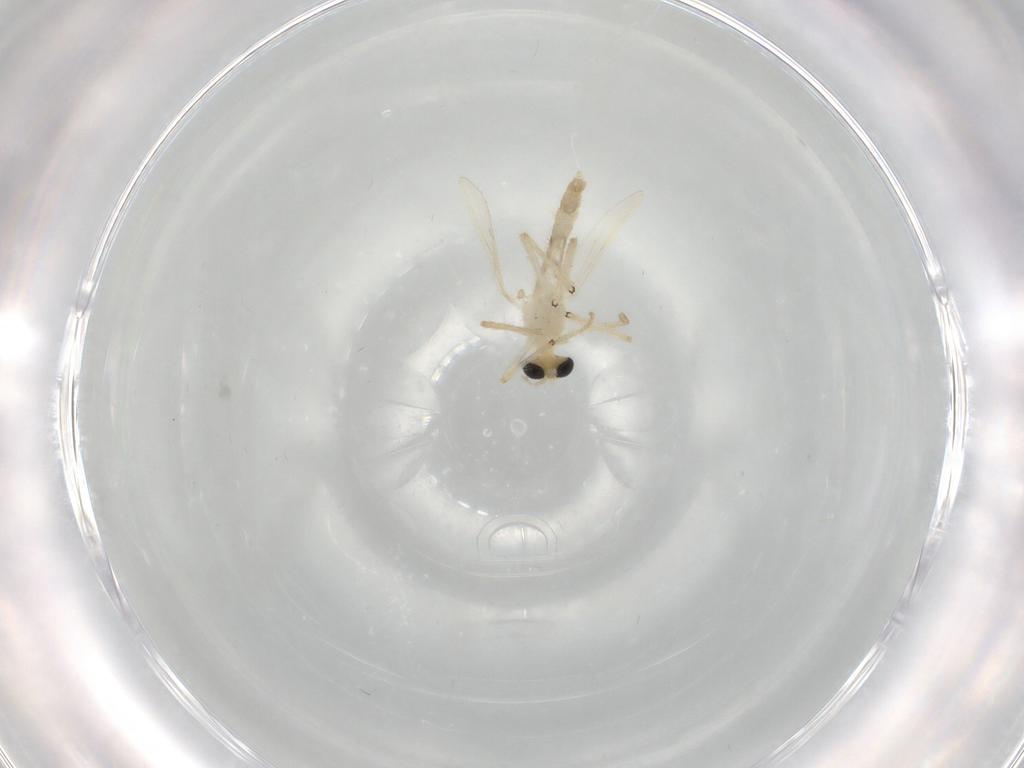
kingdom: Animalia
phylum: Arthropoda
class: Insecta
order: Diptera
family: Chironomidae
